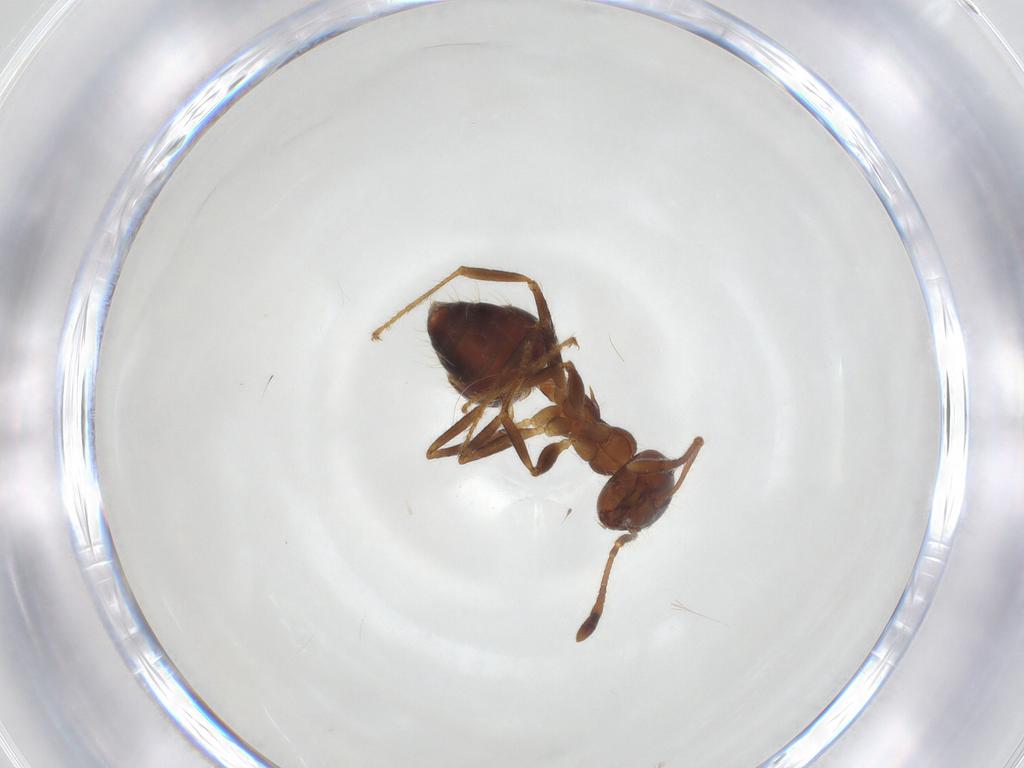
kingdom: Animalia
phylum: Arthropoda
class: Insecta
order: Hymenoptera
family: Formicidae
